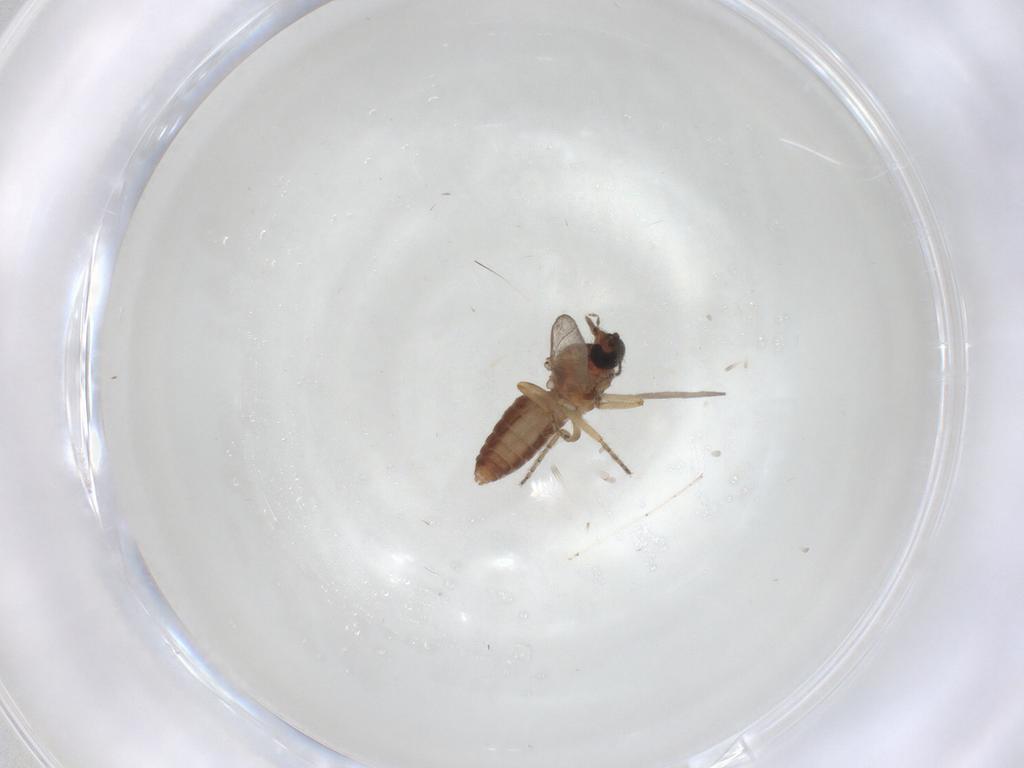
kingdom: Animalia
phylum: Arthropoda
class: Insecta
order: Diptera
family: Ceratopogonidae
